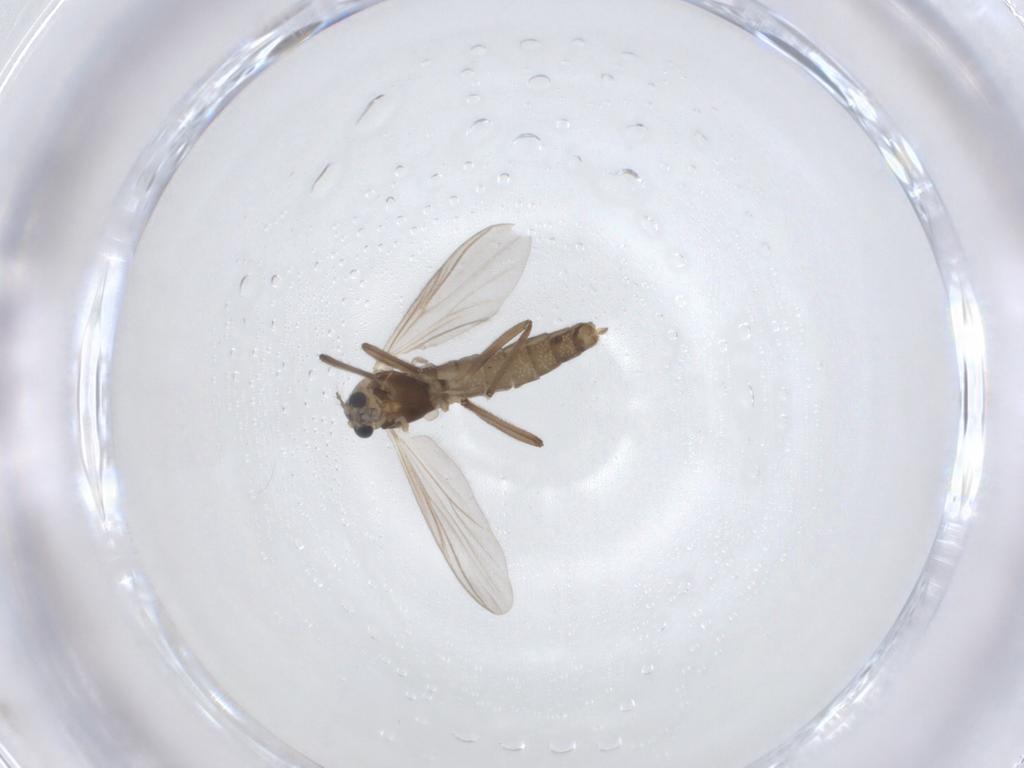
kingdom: Animalia
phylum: Arthropoda
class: Insecta
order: Diptera
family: Chironomidae
